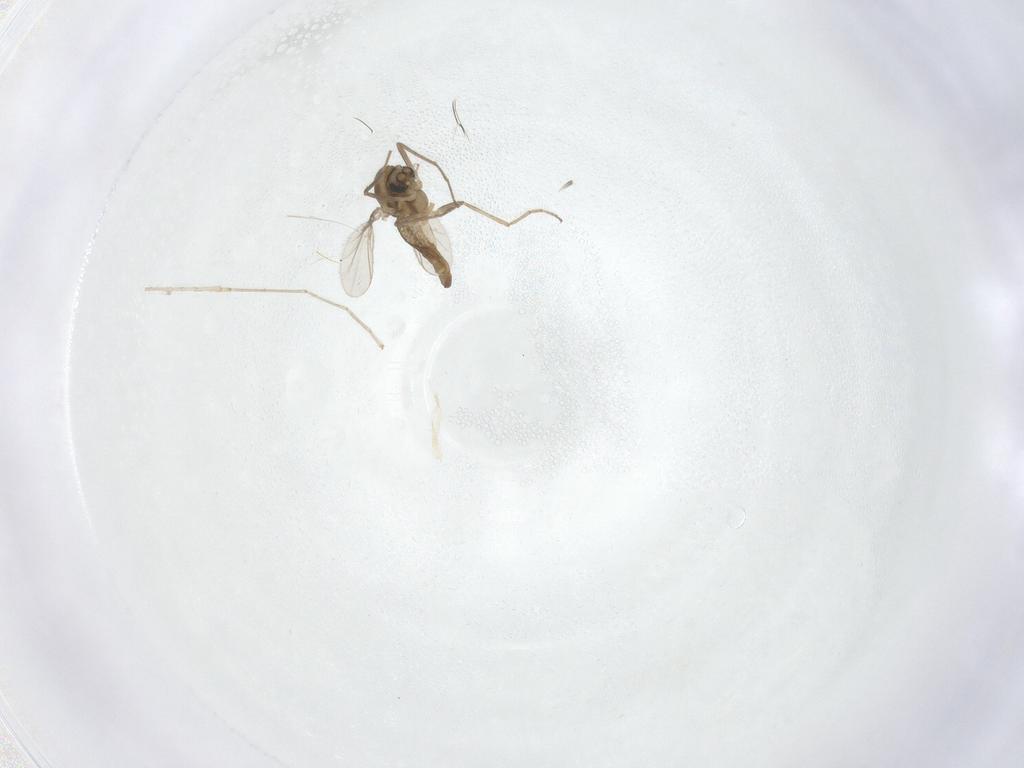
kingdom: Animalia
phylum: Arthropoda
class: Insecta
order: Diptera
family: Chironomidae
